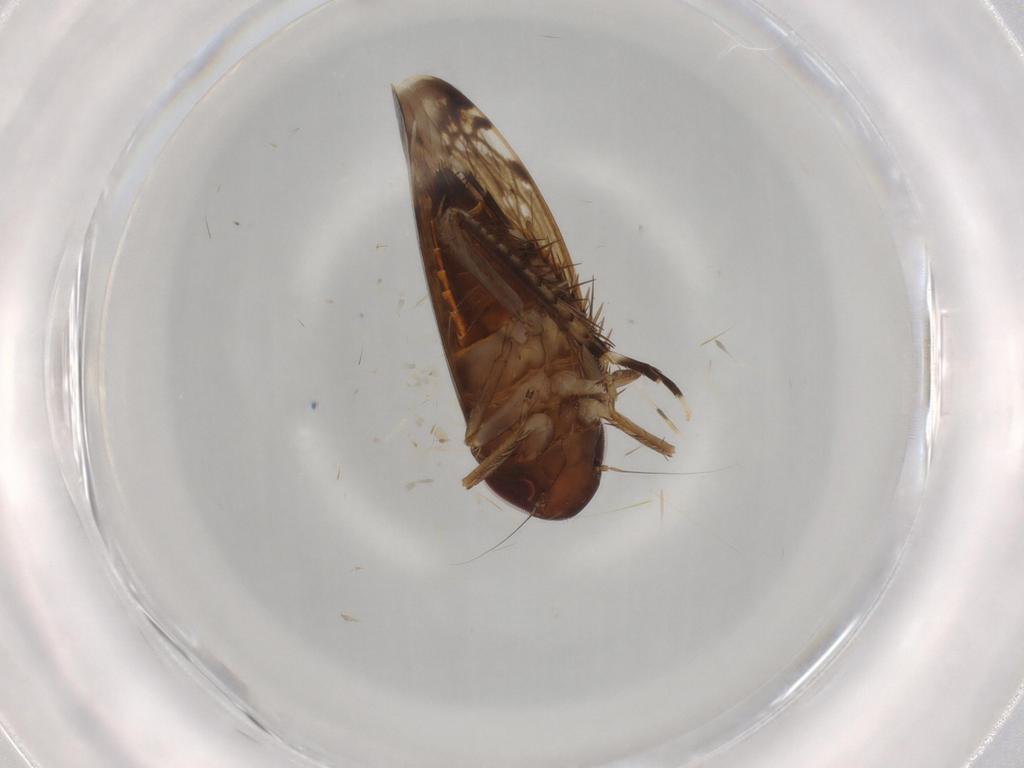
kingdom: Animalia
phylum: Arthropoda
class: Insecta
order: Hemiptera
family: Cicadellidae
